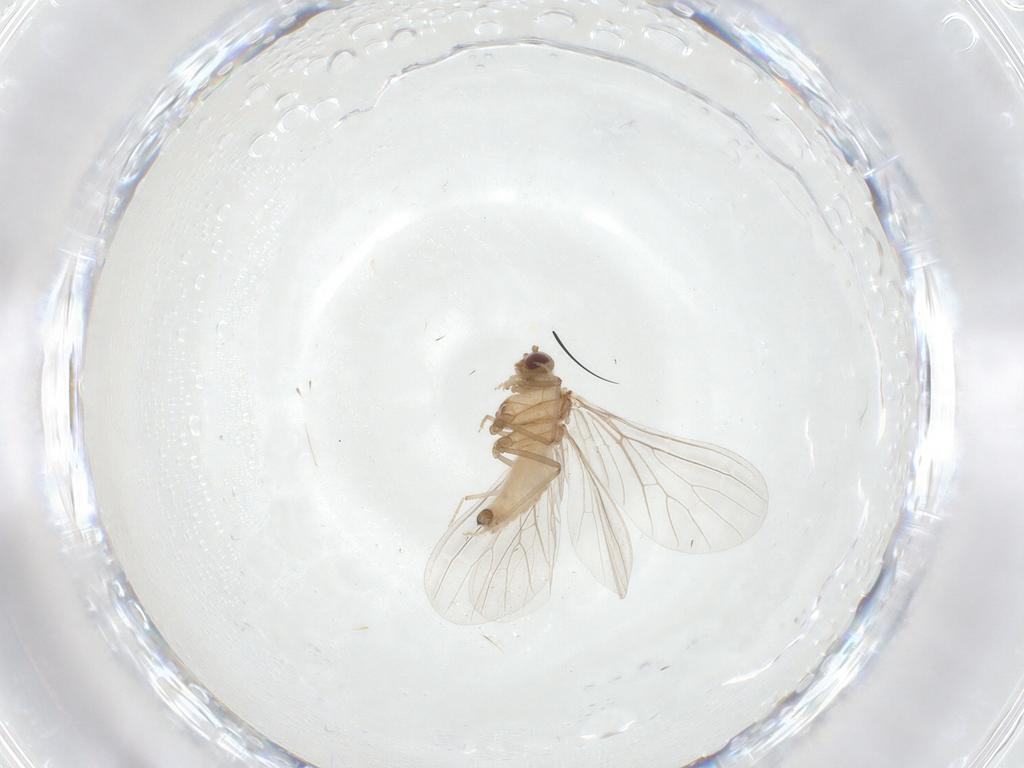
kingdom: Animalia
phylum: Arthropoda
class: Insecta
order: Neuroptera
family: Coniopterygidae
